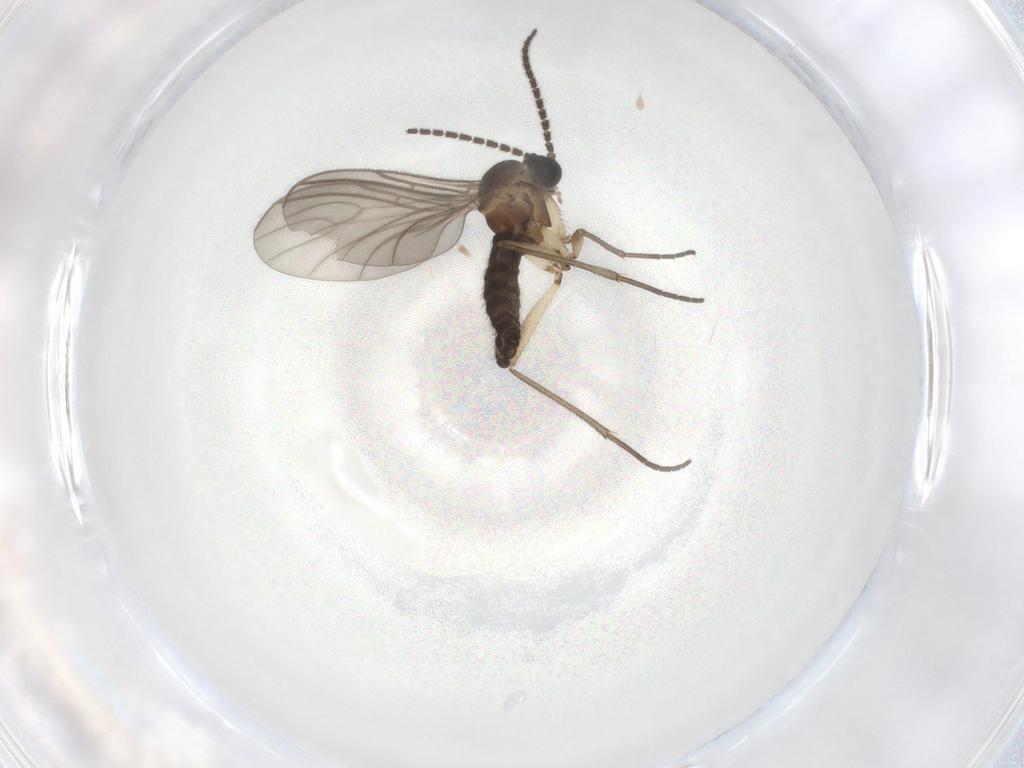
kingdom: Animalia
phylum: Arthropoda
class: Insecta
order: Diptera
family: Sciaridae
